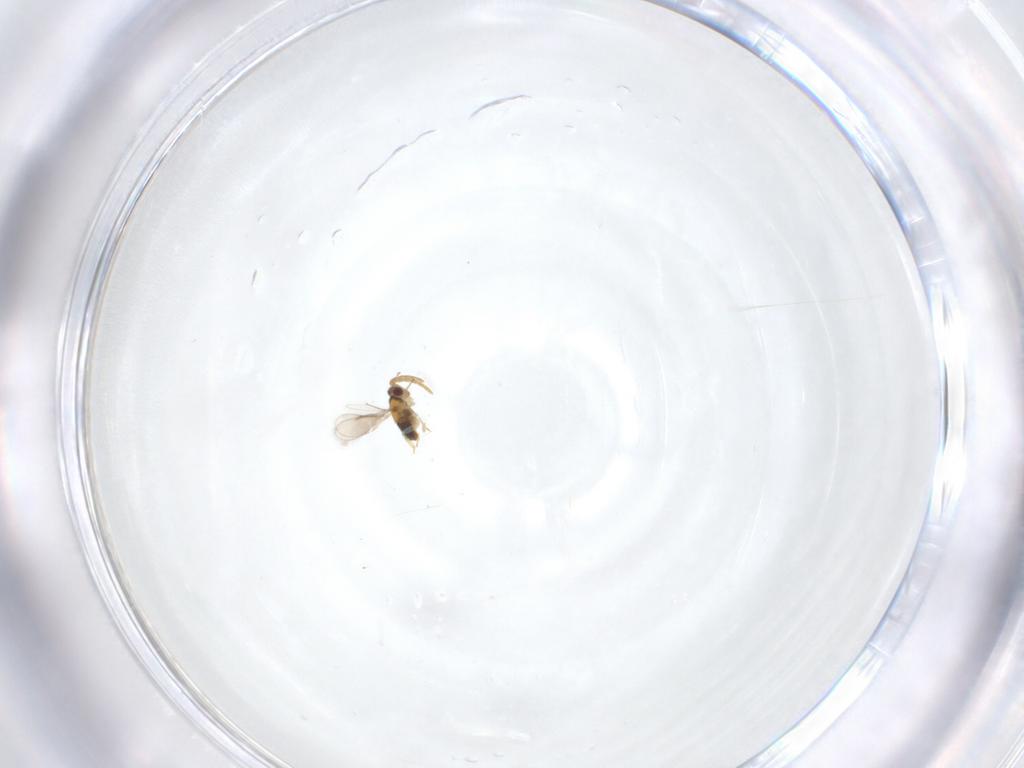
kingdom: Animalia
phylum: Arthropoda
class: Insecta
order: Hymenoptera
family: Aphelinidae
